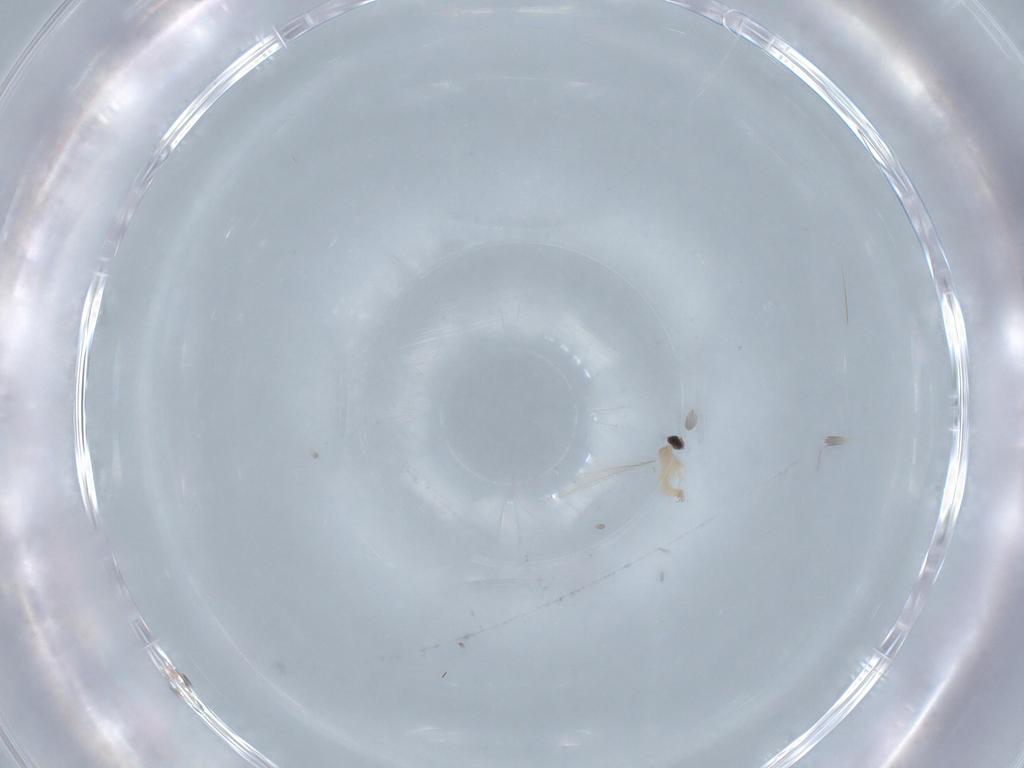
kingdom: Animalia
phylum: Arthropoda
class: Insecta
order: Diptera
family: Cecidomyiidae
